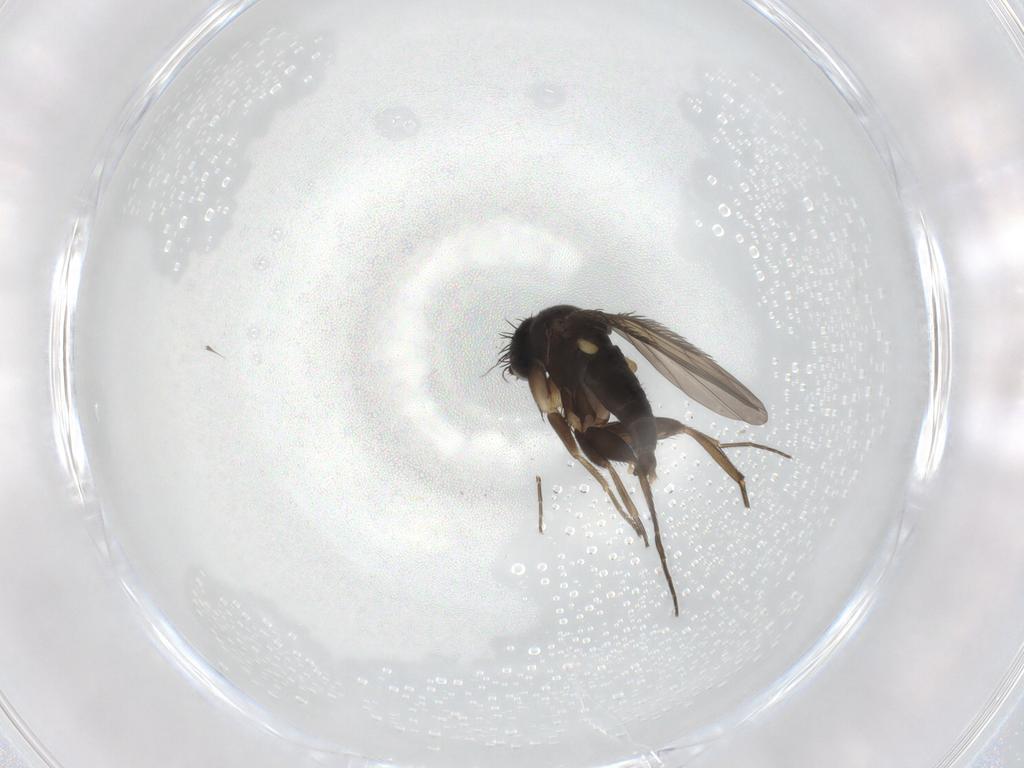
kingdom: Animalia
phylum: Arthropoda
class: Insecta
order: Diptera
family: Phoridae
